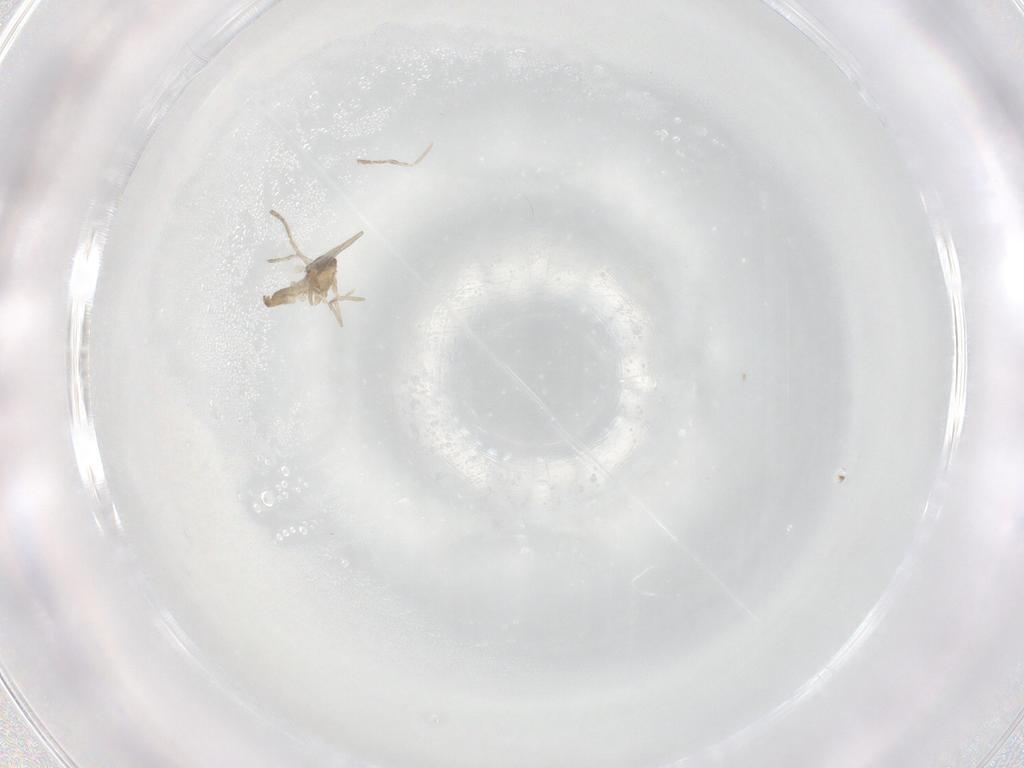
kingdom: Animalia
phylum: Arthropoda
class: Insecta
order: Diptera
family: Cecidomyiidae
